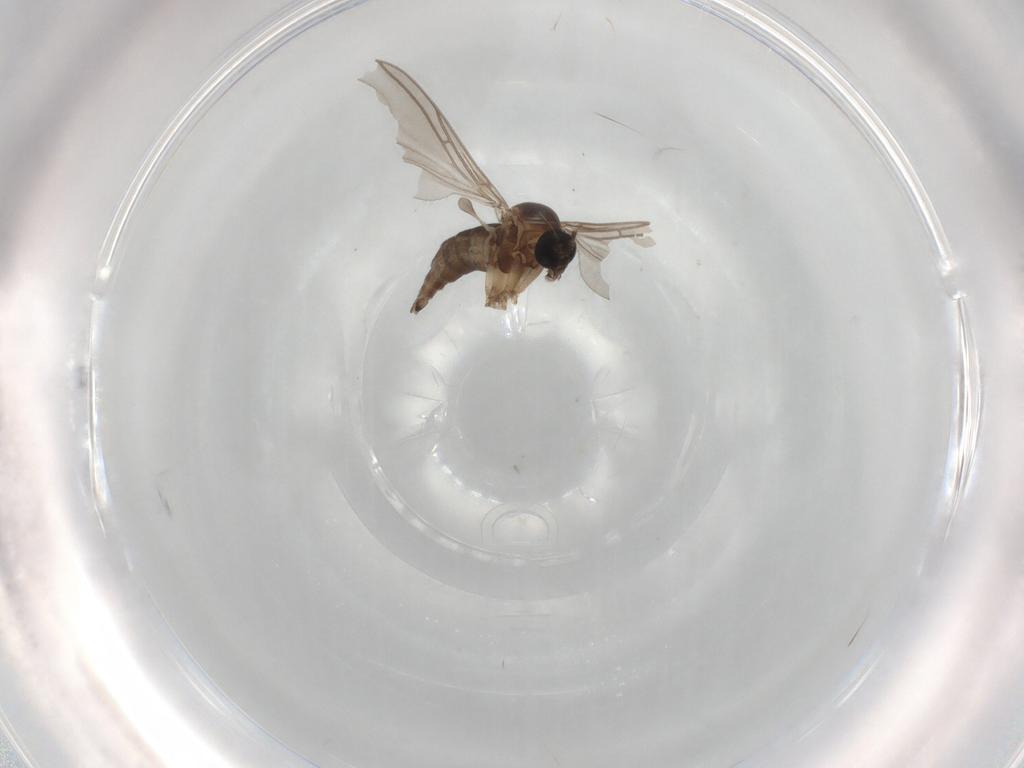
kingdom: Animalia
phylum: Arthropoda
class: Insecta
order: Diptera
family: Sciaridae
